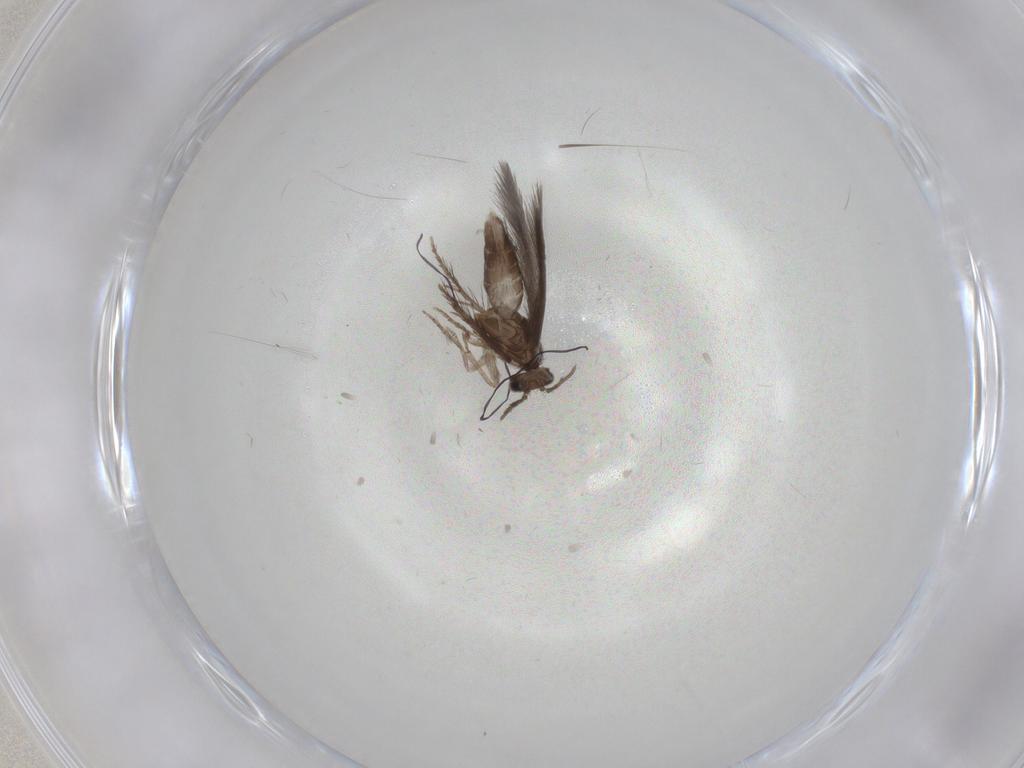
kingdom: Animalia
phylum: Arthropoda
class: Insecta
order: Trichoptera
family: Hydroptilidae
